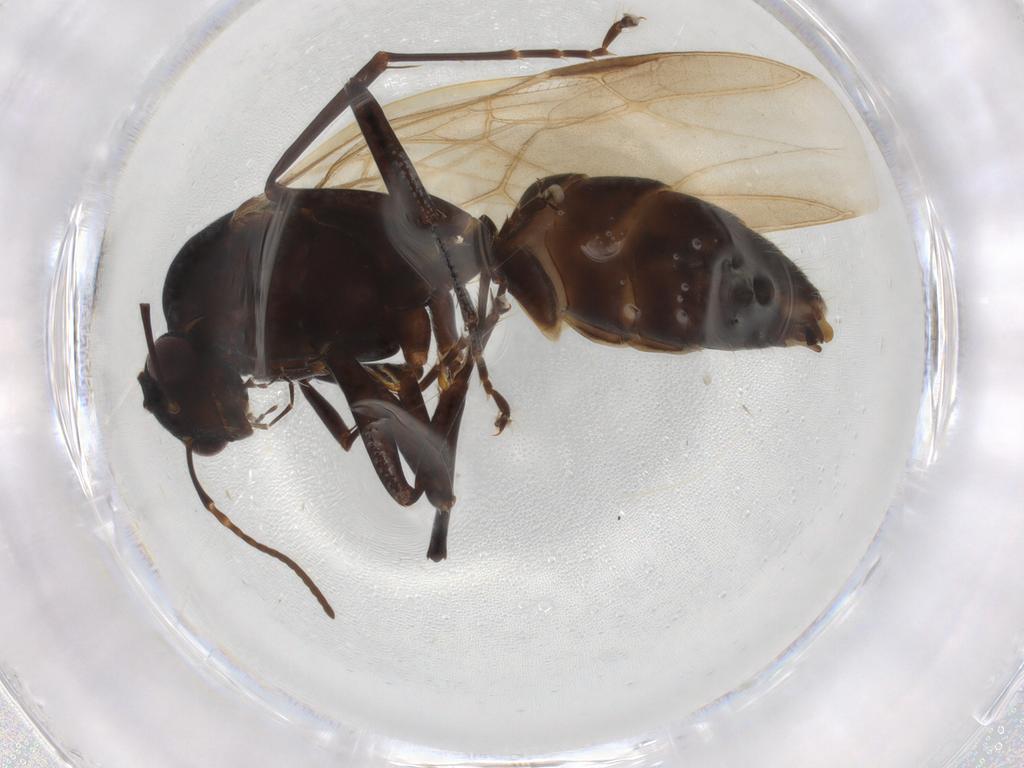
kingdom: Animalia
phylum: Arthropoda
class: Insecta
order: Hymenoptera
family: Formicidae
